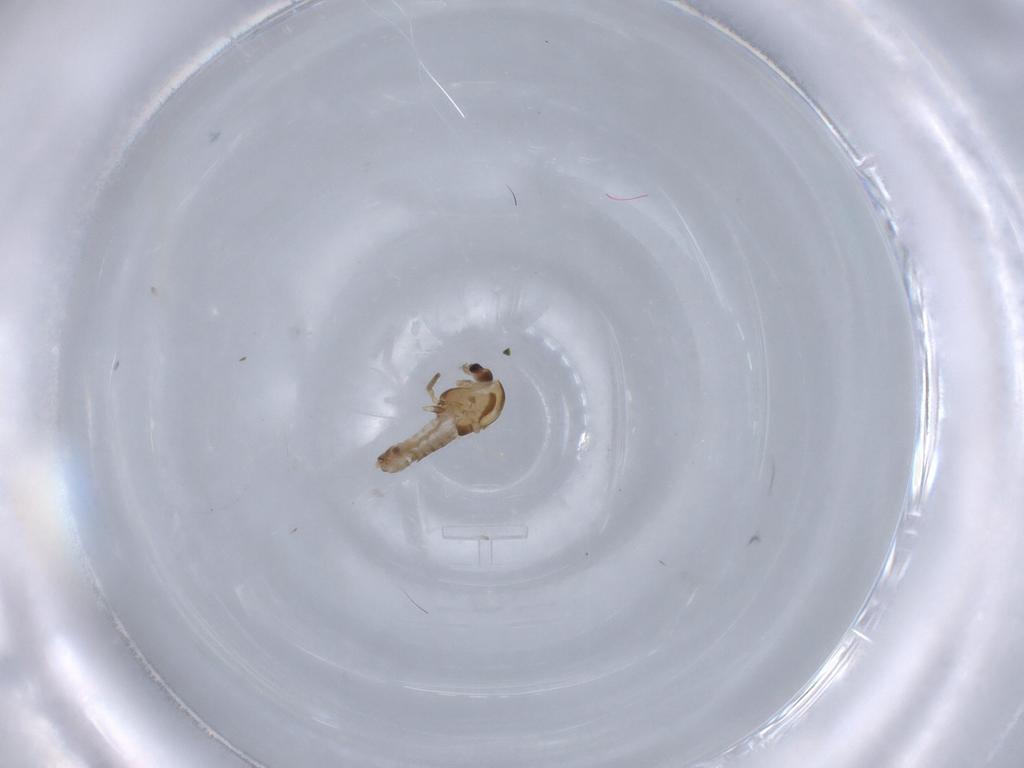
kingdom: Animalia
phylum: Arthropoda
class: Insecta
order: Diptera
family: Chironomidae
